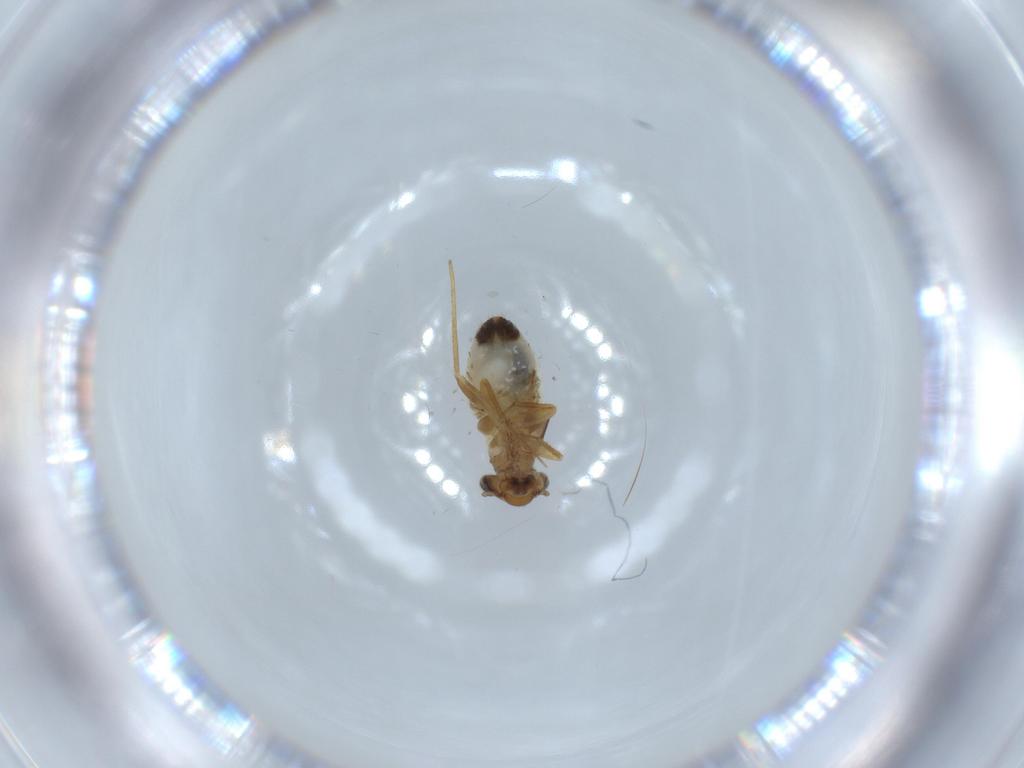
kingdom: Animalia
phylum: Arthropoda
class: Insecta
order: Psocodea
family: Lepidopsocidae
